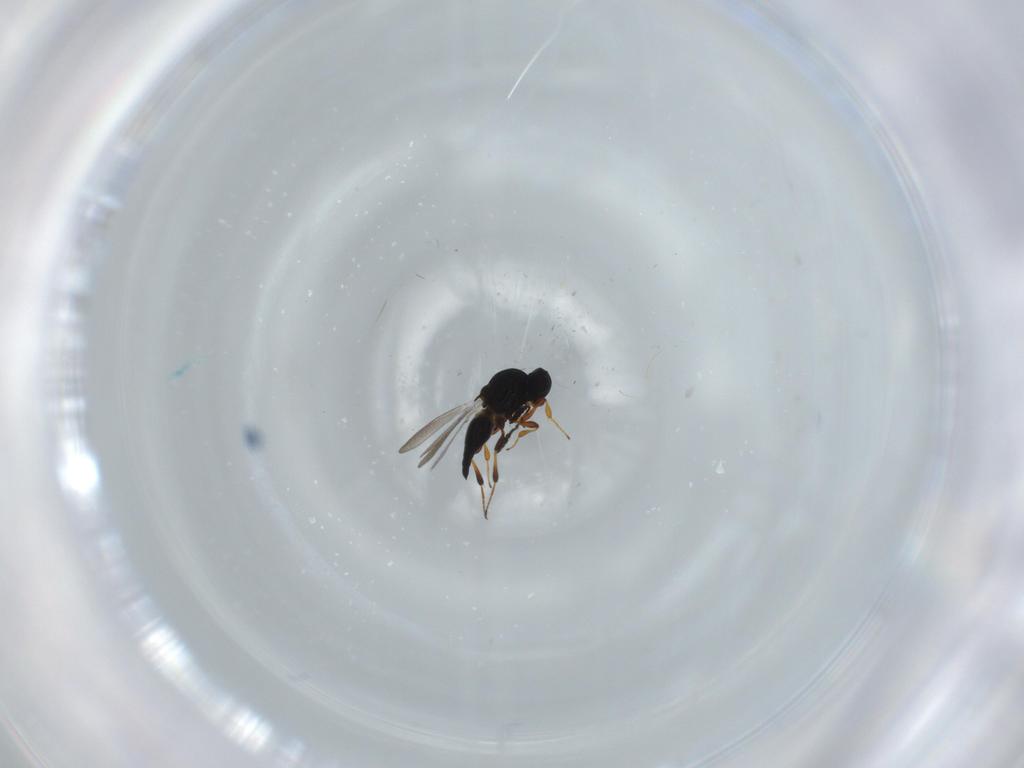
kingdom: Animalia
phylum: Arthropoda
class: Insecta
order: Hymenoptera
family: Platygastridae
